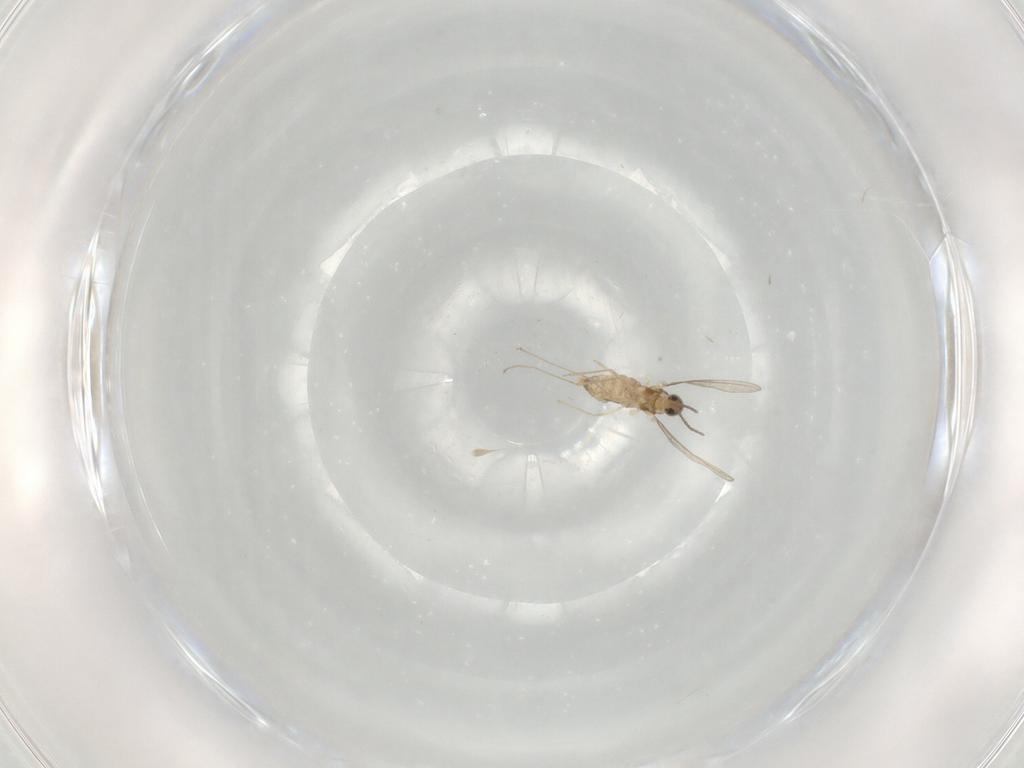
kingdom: Animalia
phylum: Arthropoda
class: Insecta
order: Diptera
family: Cecidomyiidae
